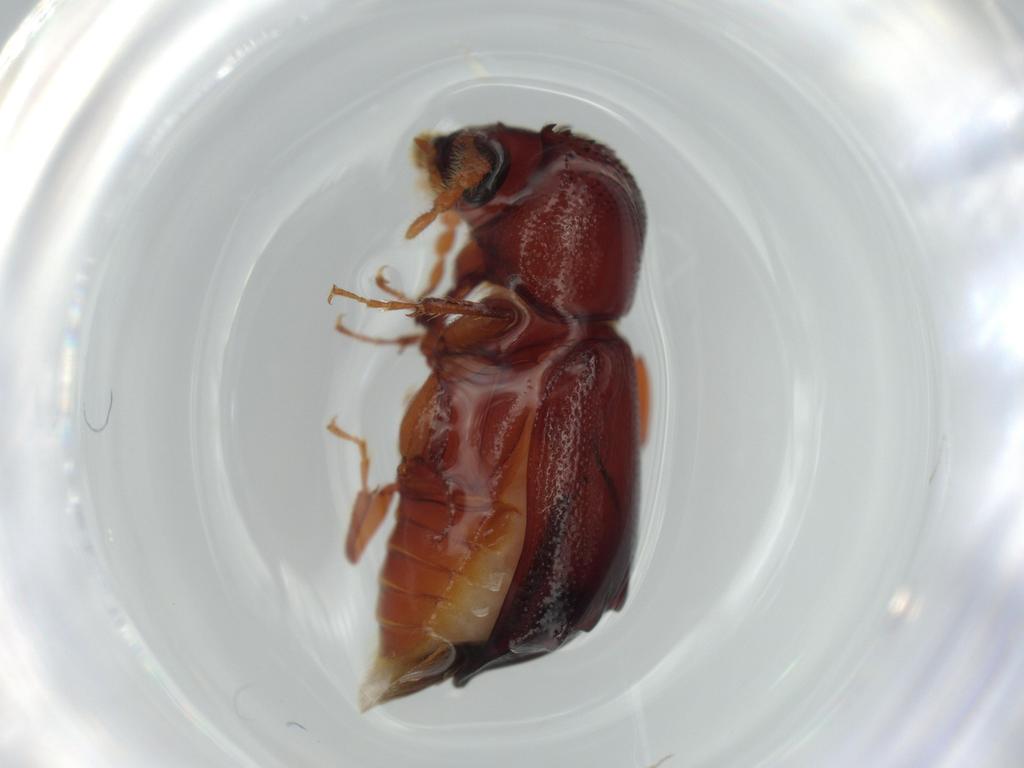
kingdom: Animalia
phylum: Arthropoda
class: Insecta
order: Coleoptera
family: Bostrichidae
